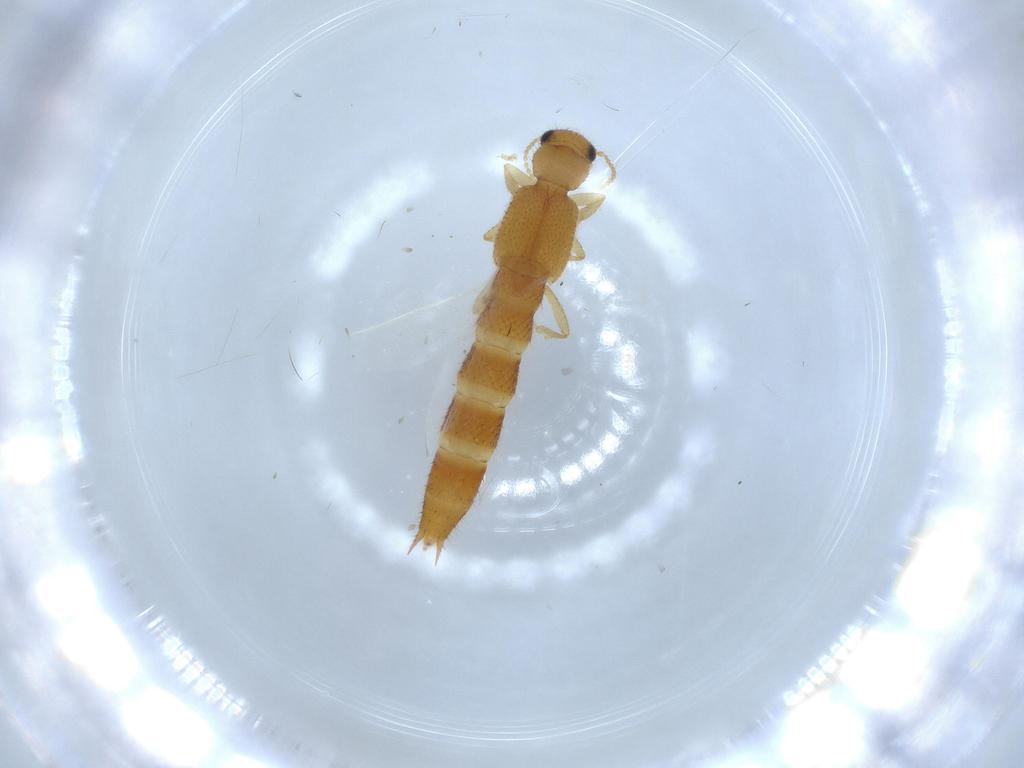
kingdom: Animalia
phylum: Arthropoda
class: Insecta
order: Coleoptera
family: Staphylinidae
